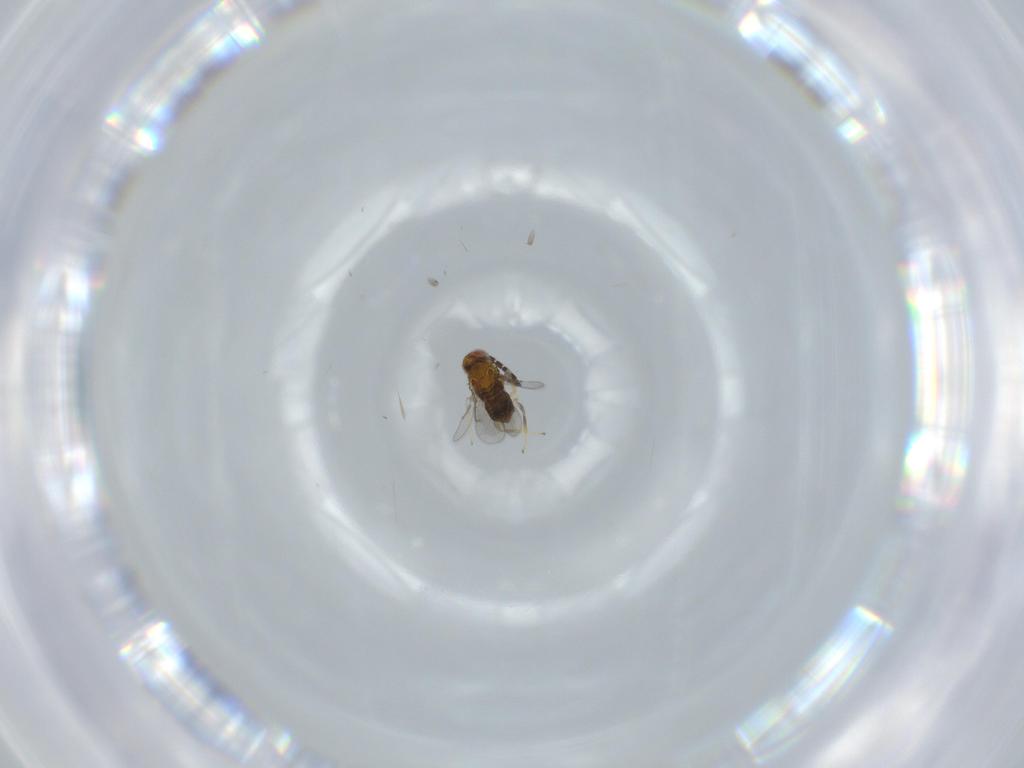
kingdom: Animalia
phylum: Arthropoda
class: Insecta
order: Hymenoptera
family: Aphelinidae
